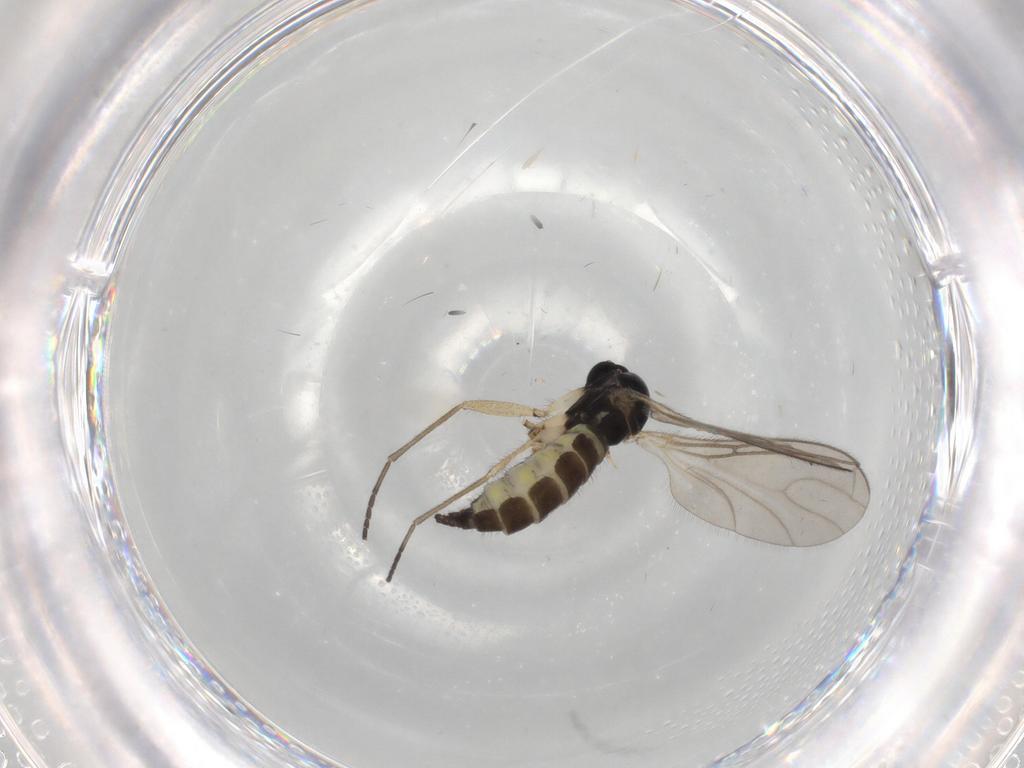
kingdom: Animalia
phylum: Arthropoda
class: Insecta
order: Diptera
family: Sciaridae
